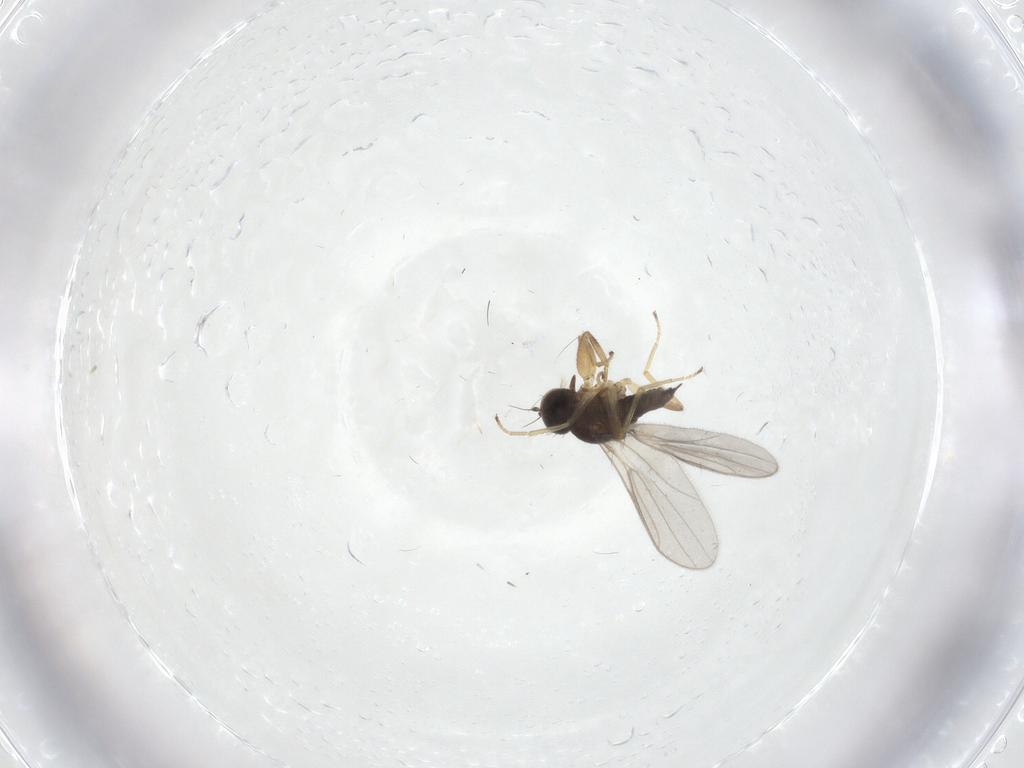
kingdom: Animalia
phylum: Arthropoda
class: Insecta
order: Diptera
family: Hybotidae
